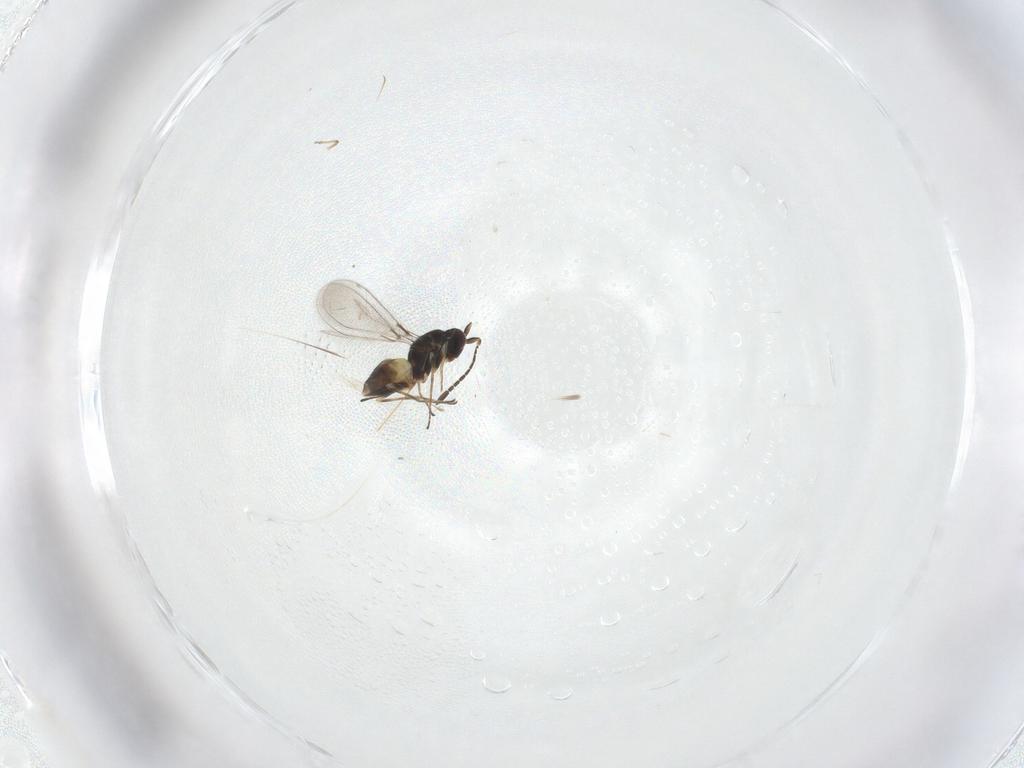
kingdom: Animalia
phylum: Arthropoda
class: Insecta
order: Hymenoptera
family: Mymaridae
